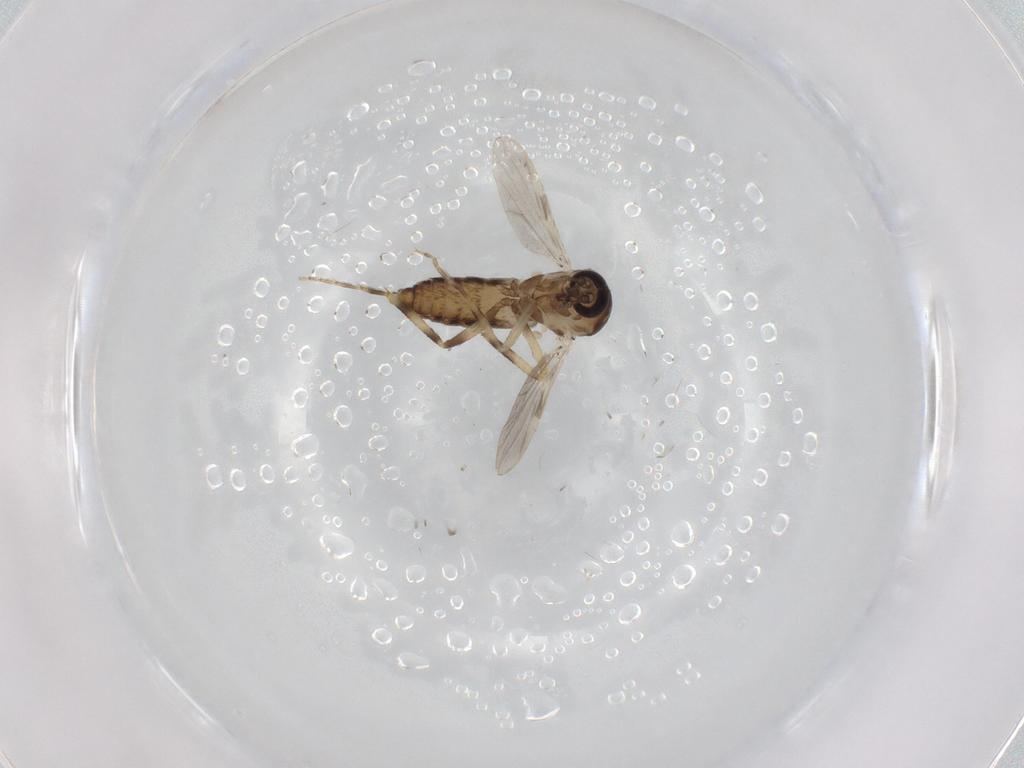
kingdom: Animalia
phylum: Arthropoda
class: Insecta
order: Diptera
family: Ceratopogonidae
